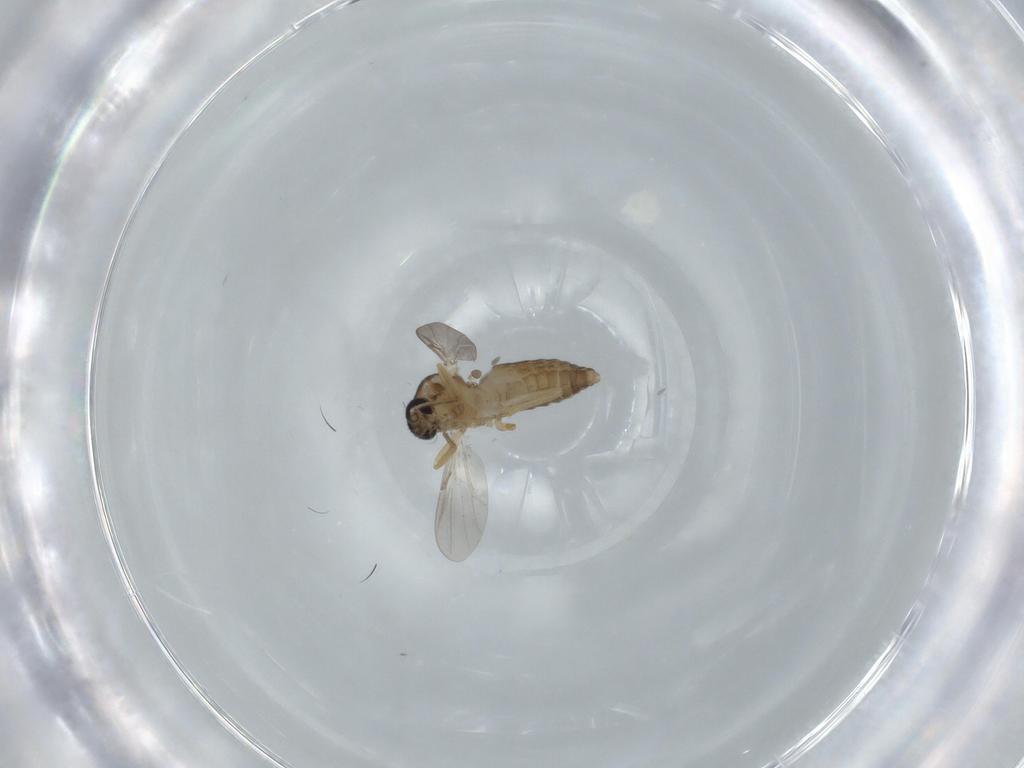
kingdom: Animalia
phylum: Arthropoda
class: Insecta
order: Diptera
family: Ceratopogonidae
